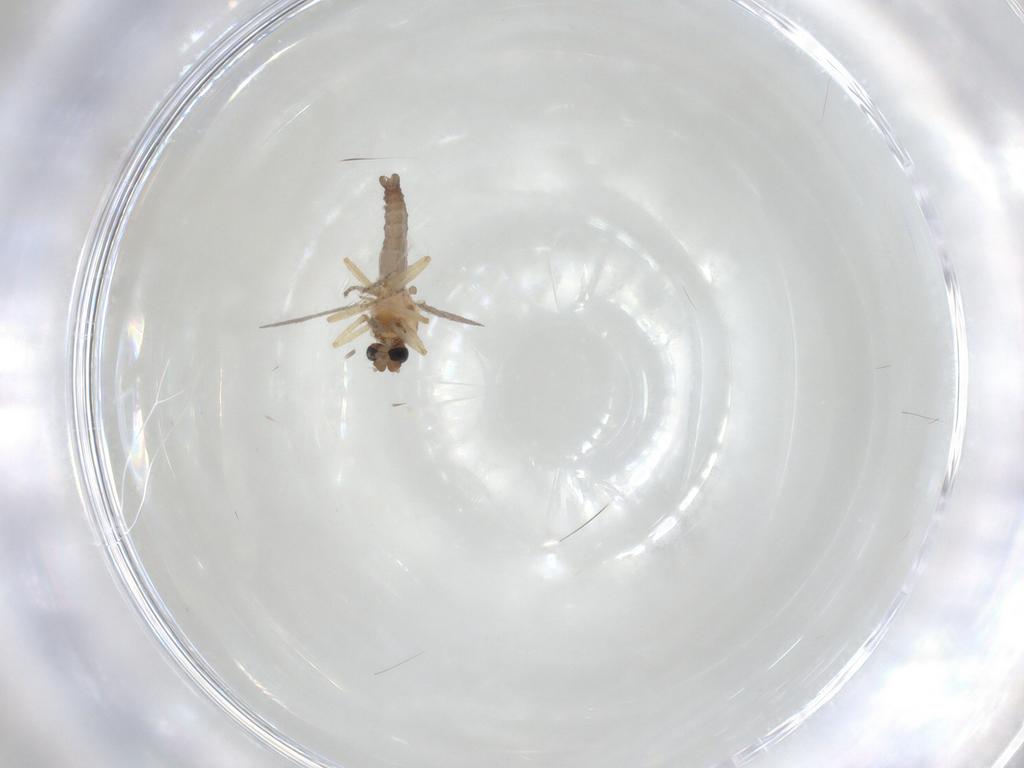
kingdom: Animalia
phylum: Arthropoda
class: Insecta
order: Diptera
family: Ceratopogonidae
